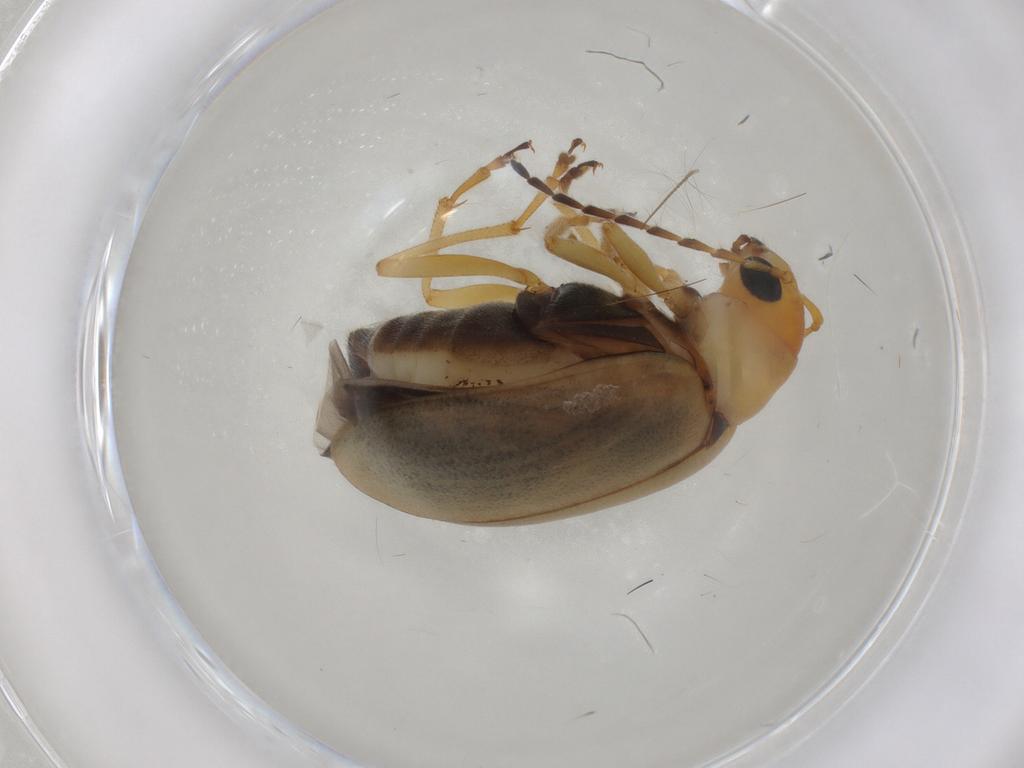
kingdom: Animalia
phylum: Arthropoda
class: Insecta
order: Coleoptera
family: Chrysomelidae
